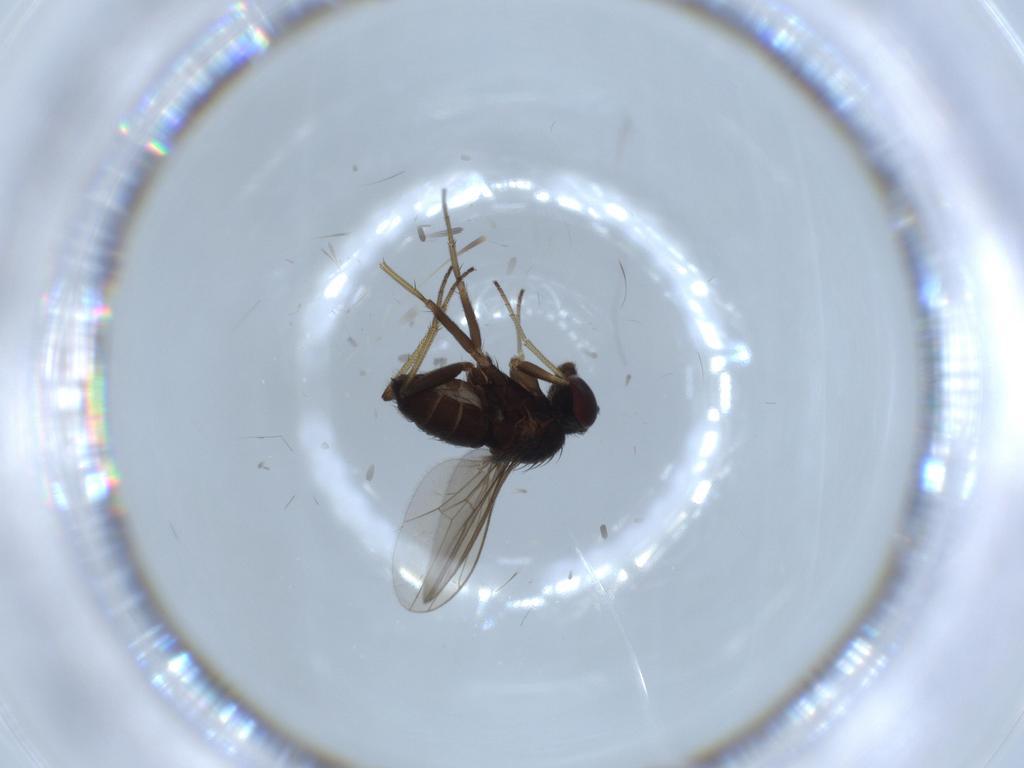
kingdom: Animalia
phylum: Arthropoda
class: Insecta
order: Diptera
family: Dolichopodidae
